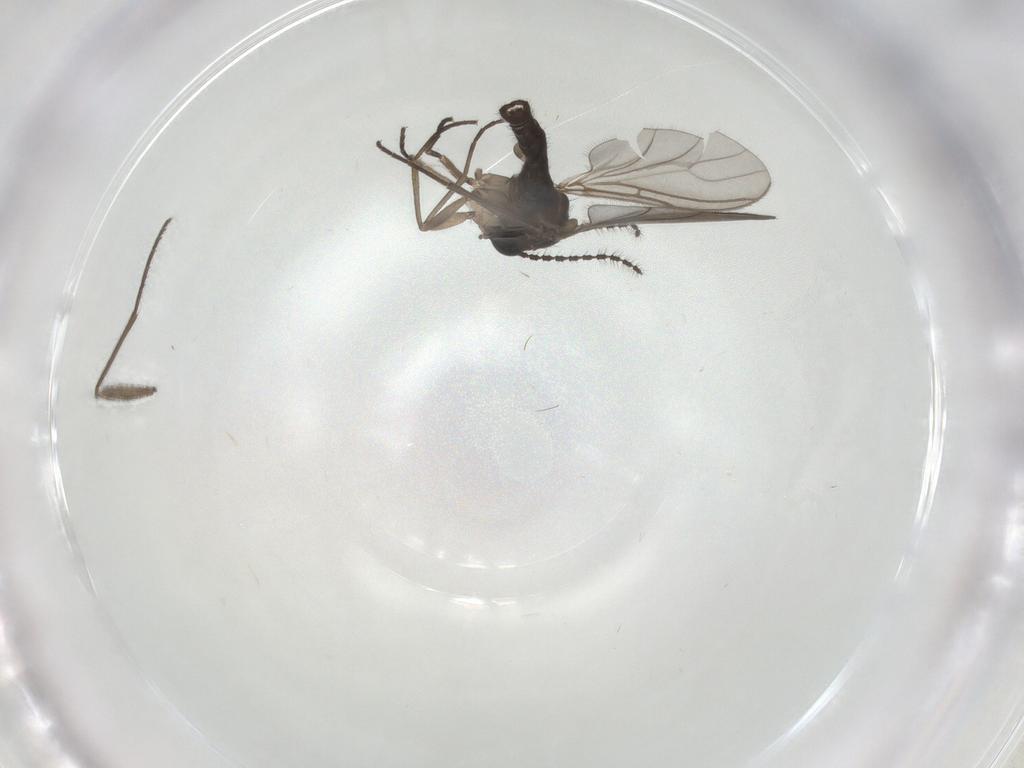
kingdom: Animalia
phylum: Arthropoda
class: Insecta
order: Diptera
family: Sciaridae
